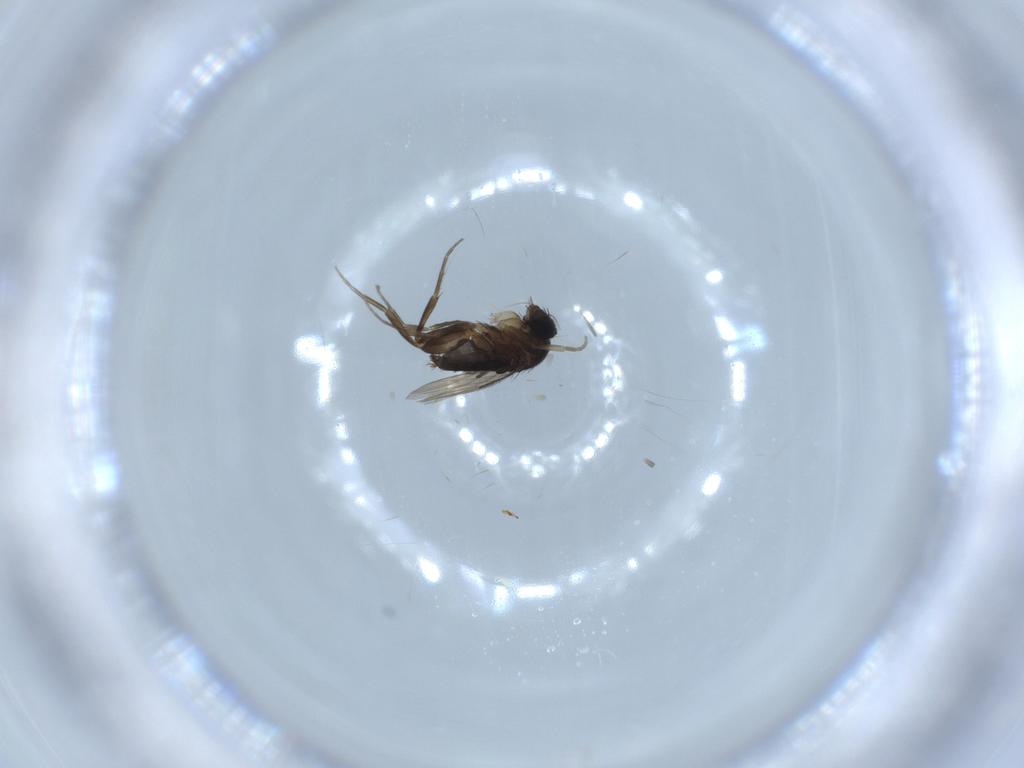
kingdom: Animalia
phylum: Arthropoda
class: Insecta
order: Diptera
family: Phoridae
